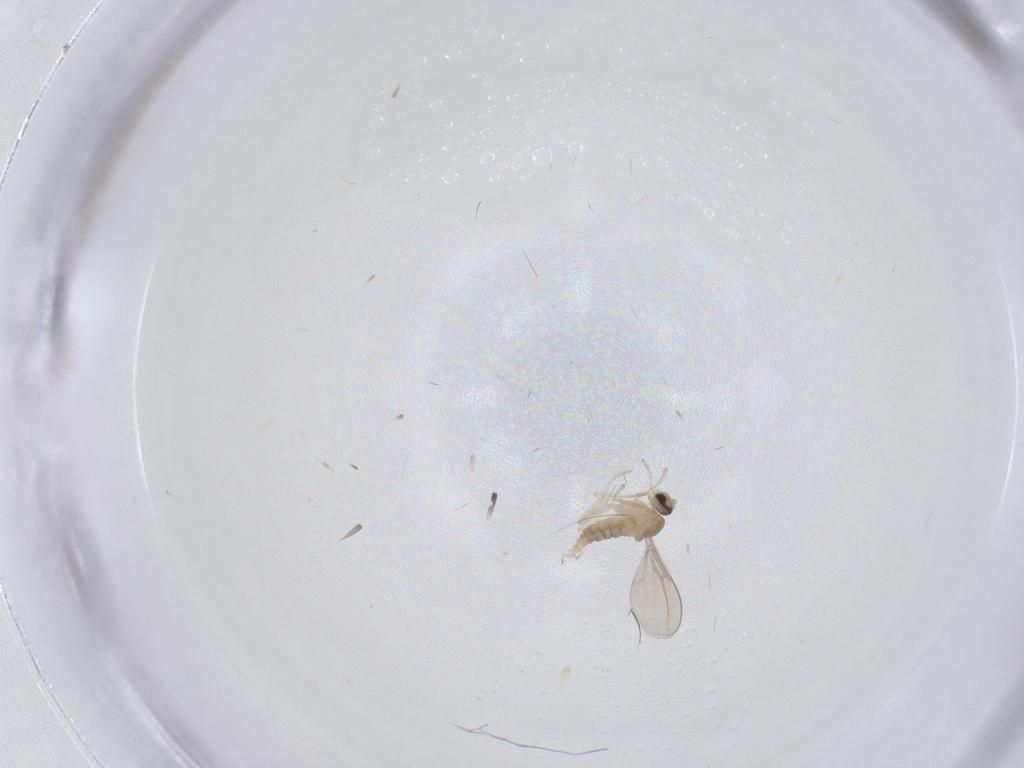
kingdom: Animalia
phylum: Arthropoda
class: Insecta
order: Diptera
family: Cecidomyiidae
